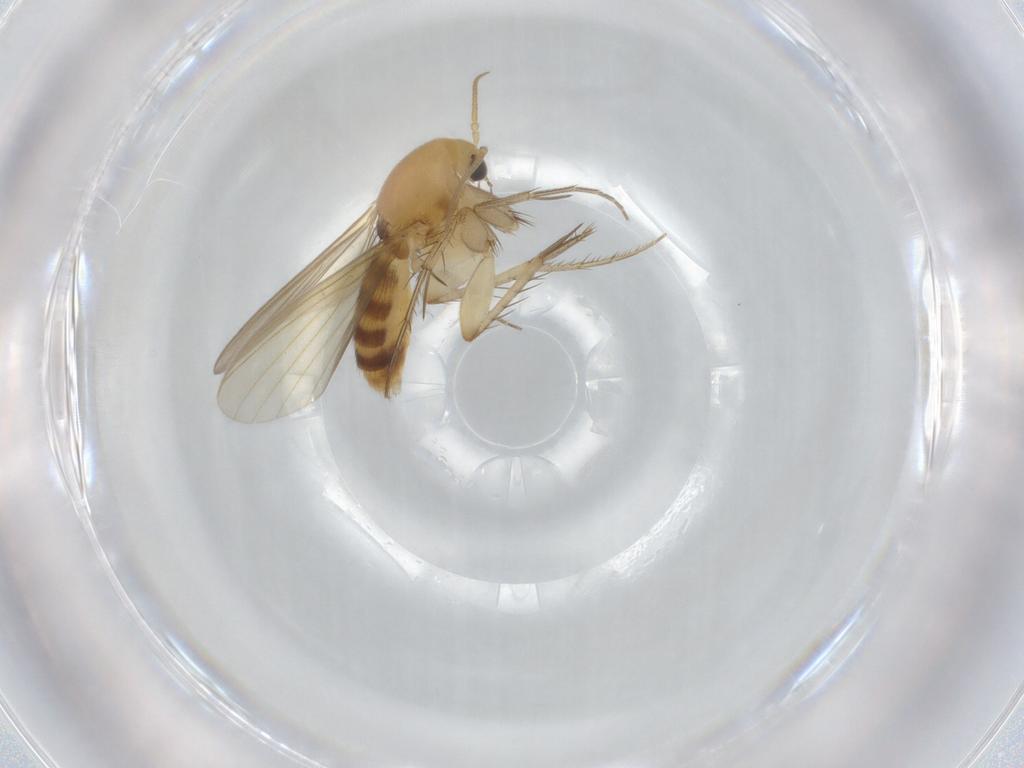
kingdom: Animalia
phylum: Arthropoda
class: Insecta
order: Diptera
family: Mycetophilidae
